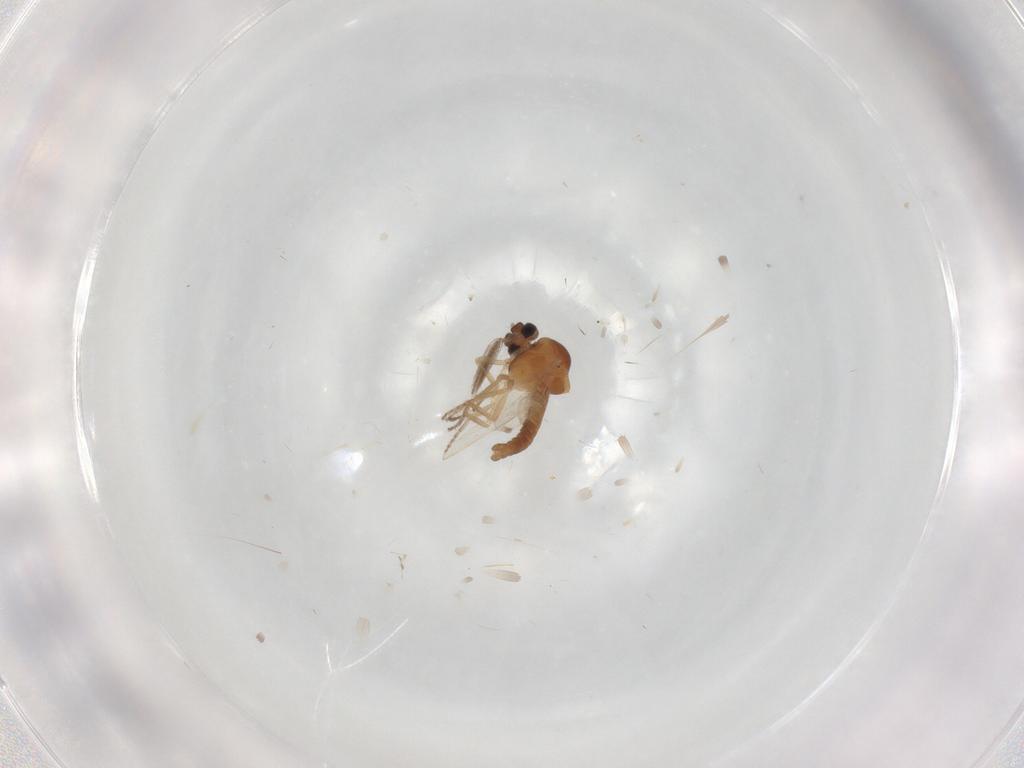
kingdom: Animalia
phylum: Arthropoda
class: Insecta
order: Diptera
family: Ceratopogonidae
